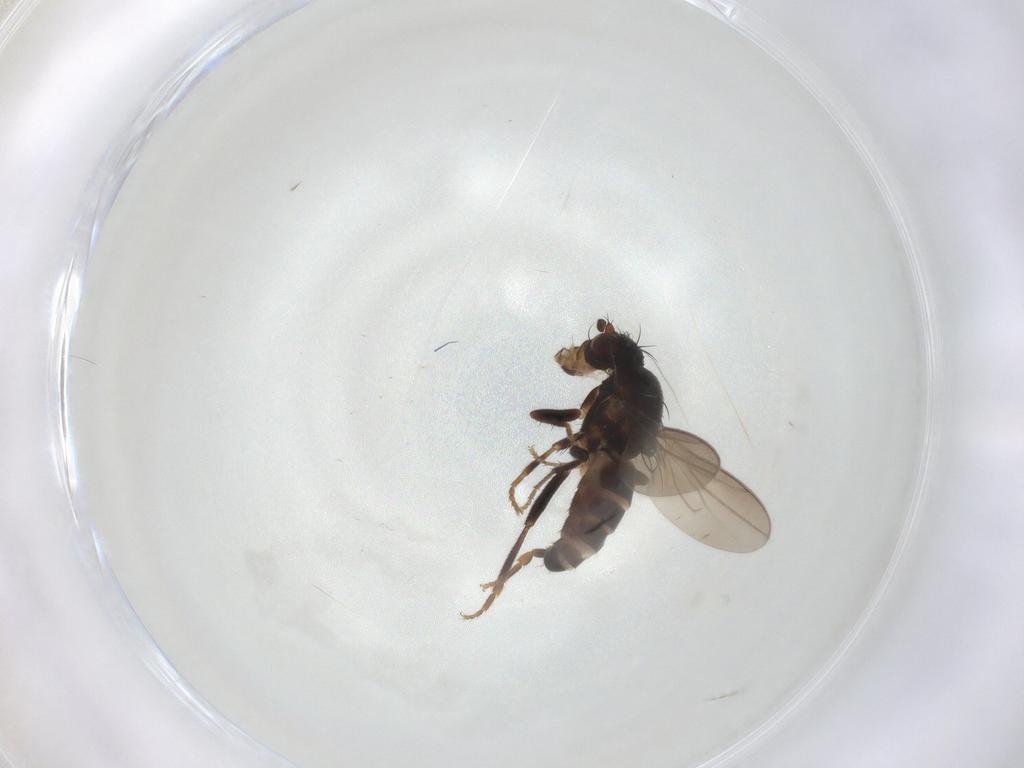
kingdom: Animalia
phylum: Arthropoda
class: Insecta
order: Diptera
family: Sphaeroceridae
